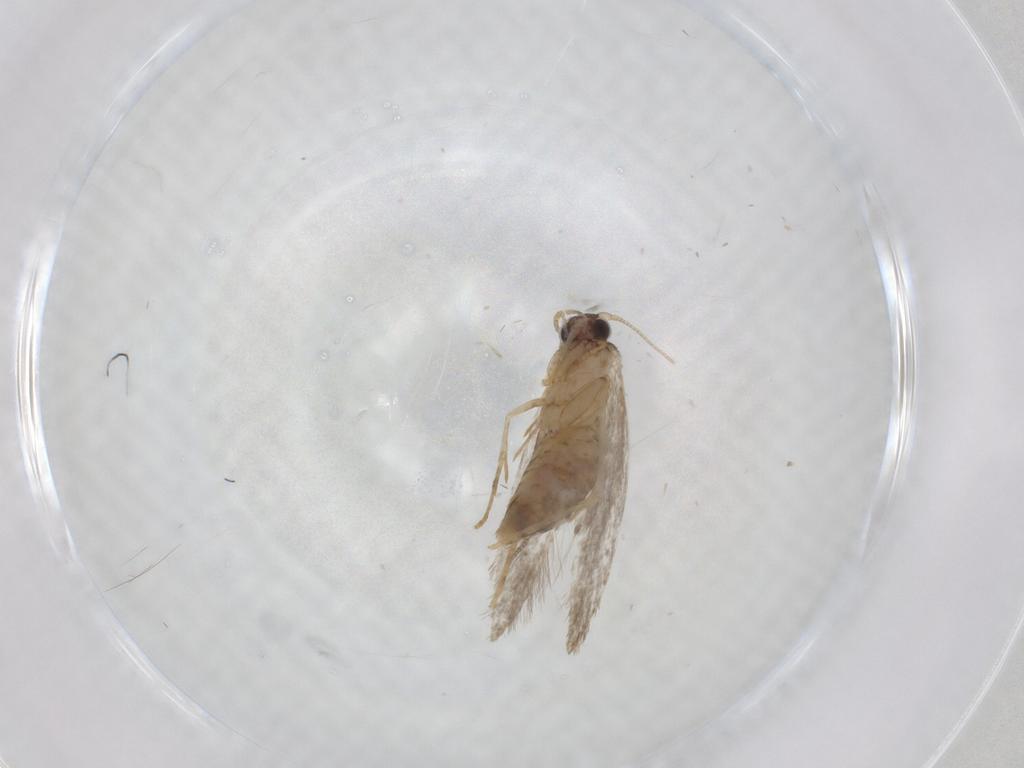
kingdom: Animalia
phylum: Arthropoda
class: Insecta
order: Lepidoptera
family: Tineidae
